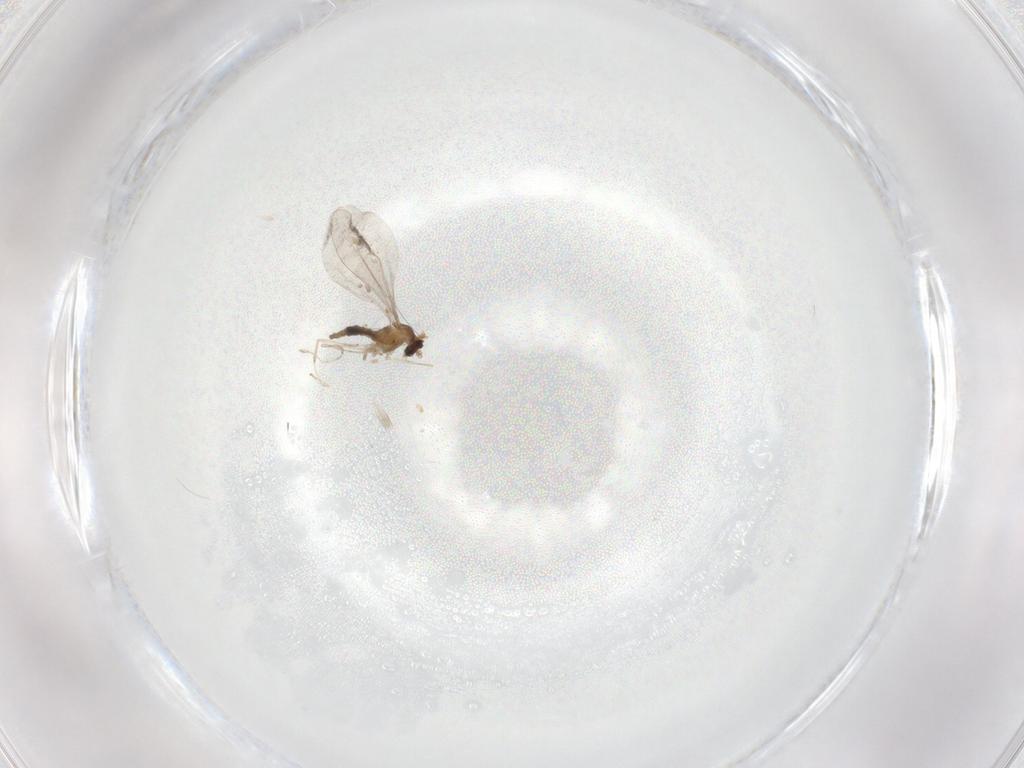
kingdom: Animalia
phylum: Arthropoda
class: Insecta
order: Diptera
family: Cecidomyiidae
